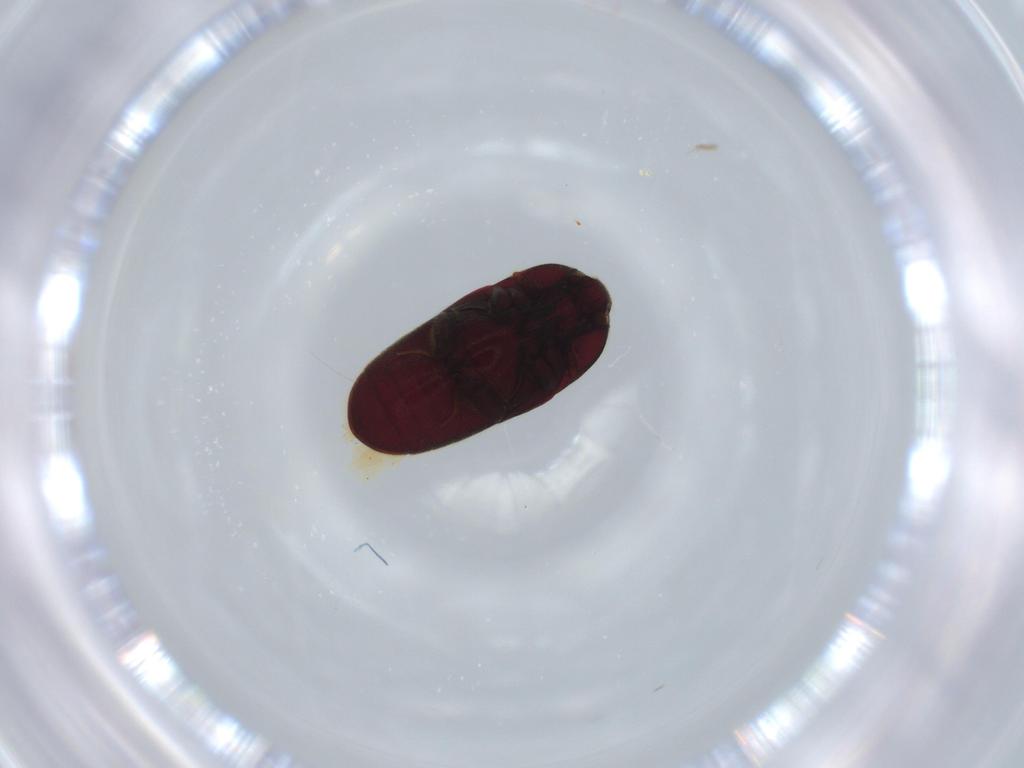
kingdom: Animalia
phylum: Arthropoda
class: Insecta
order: Coleoptera
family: Throscidae
